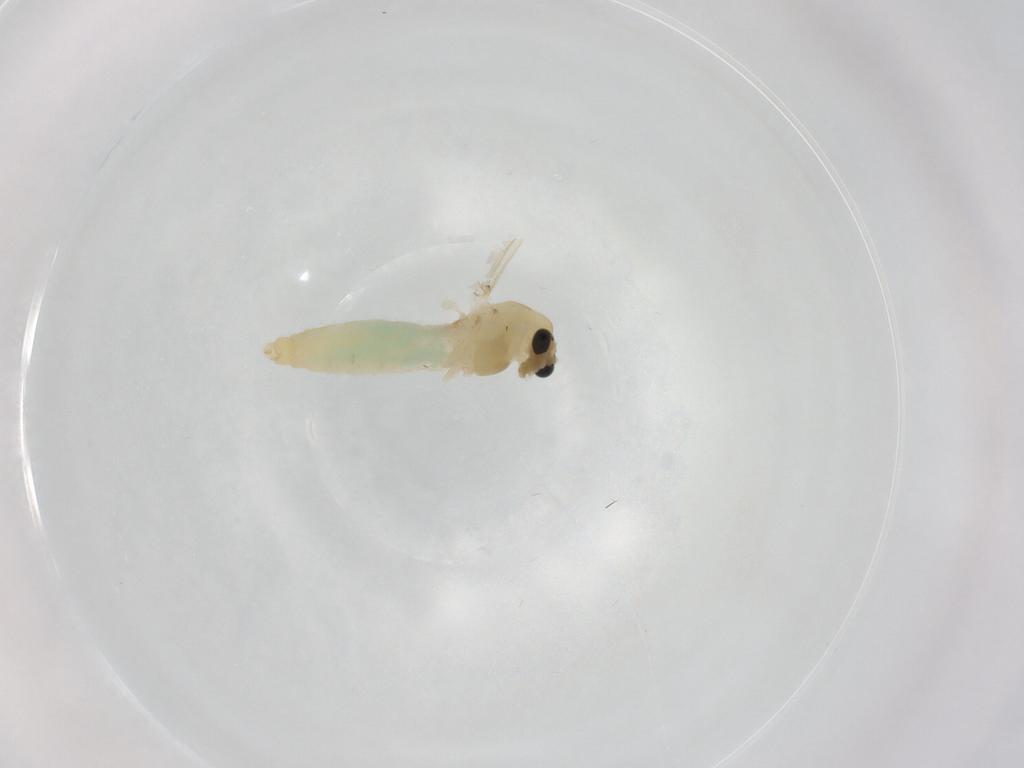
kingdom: Animalia
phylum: Arthropoda
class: Insecta
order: Diptera
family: Chironomidae
